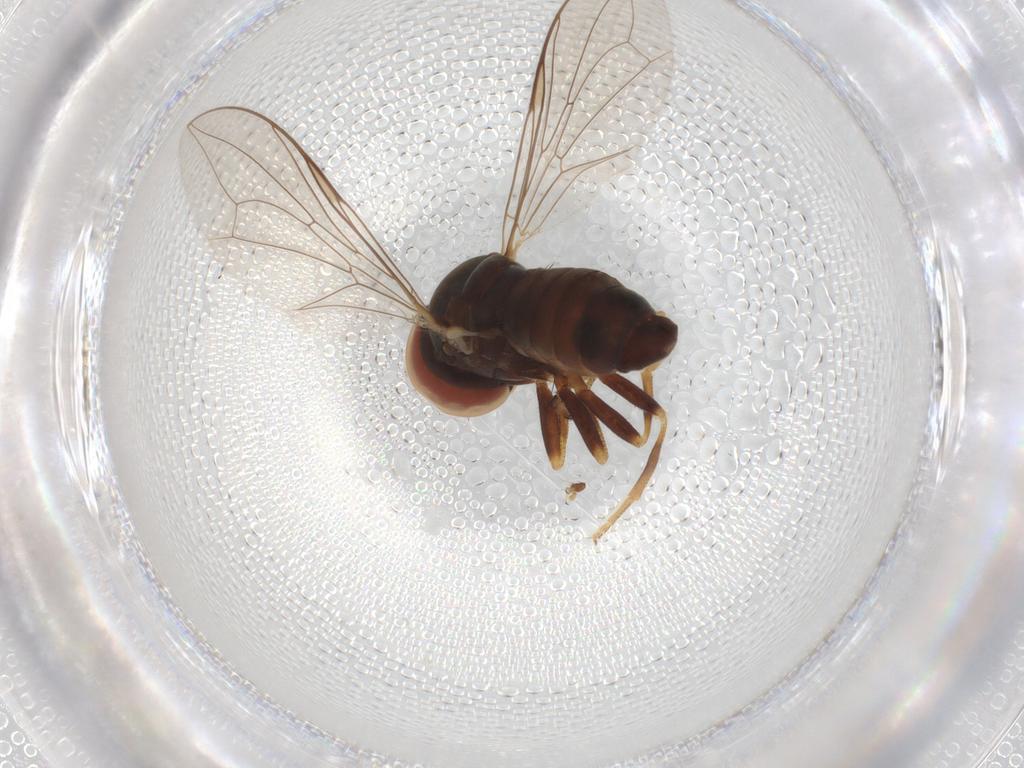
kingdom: Animalia
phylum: Arthropoda
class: Insecta
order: Diptera
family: Pipunculidae
